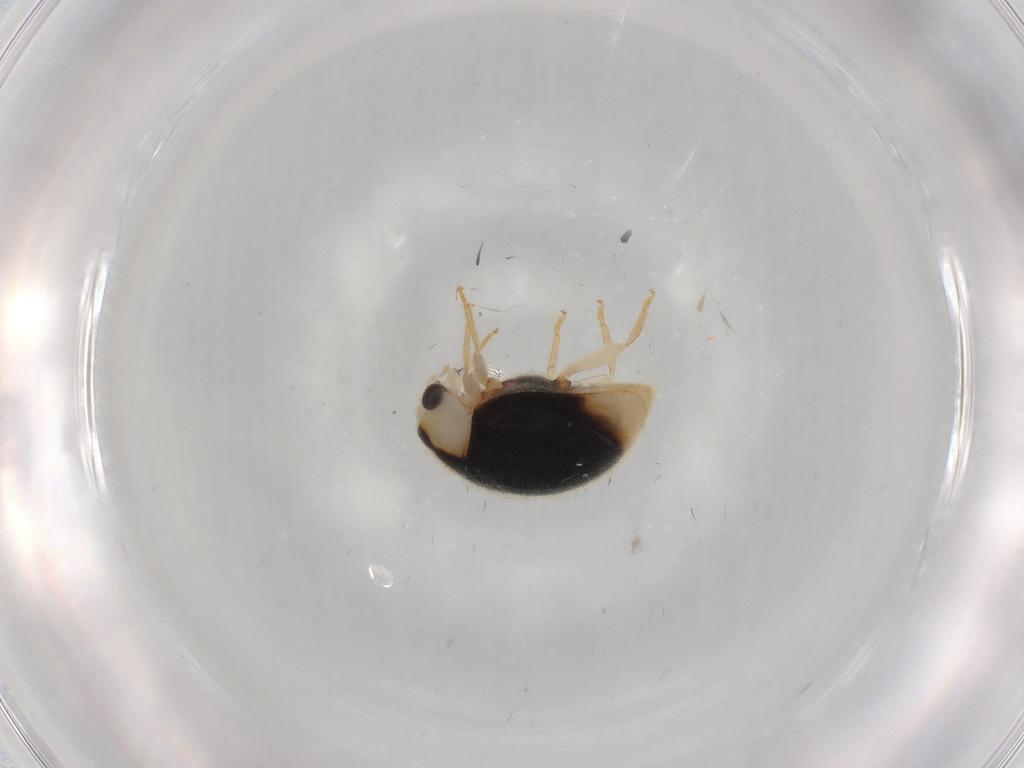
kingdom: Animalia
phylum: Arthropoda
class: Insecta
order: Coleoptera
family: Coccinellidae
